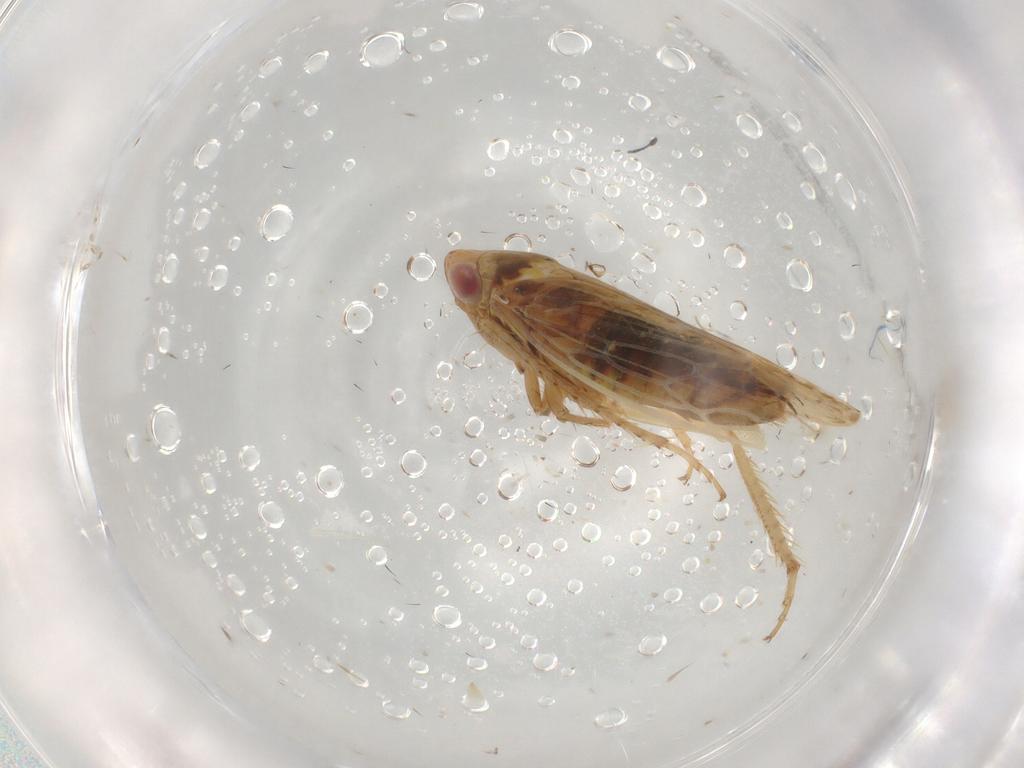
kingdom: Animalia
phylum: Arthropoda
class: Insecta
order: Hemiptera
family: Cicadellidae
